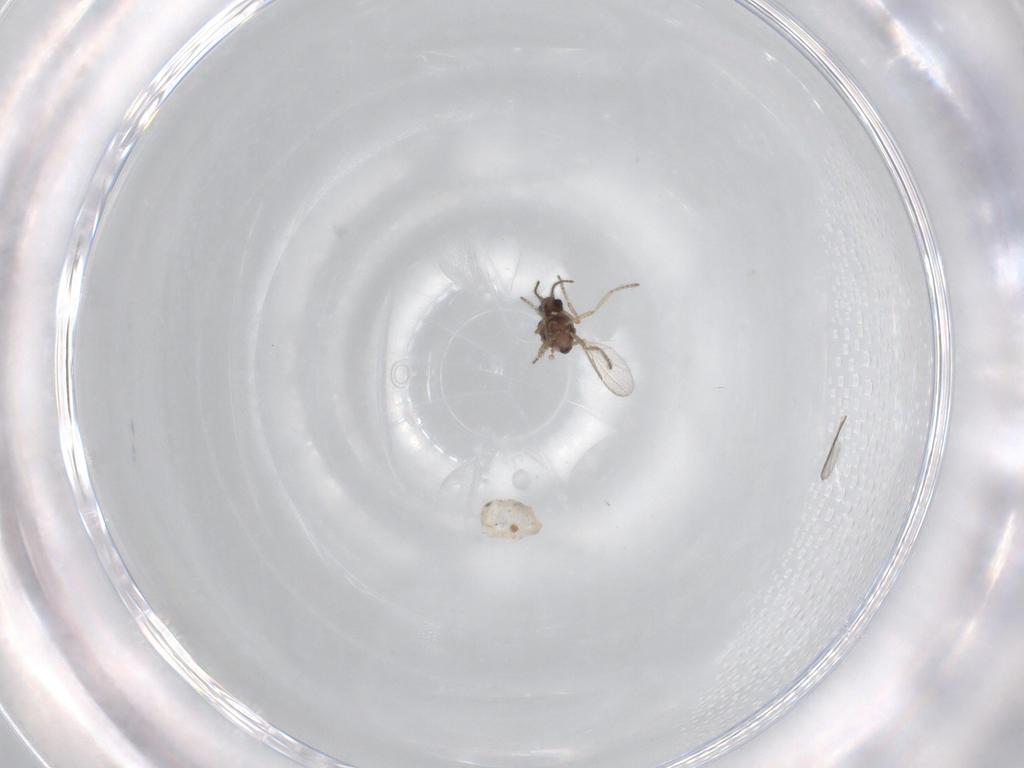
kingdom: Animalia
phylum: Arthropoda
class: Insecta
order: Diptera
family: Ceratopogonidae
